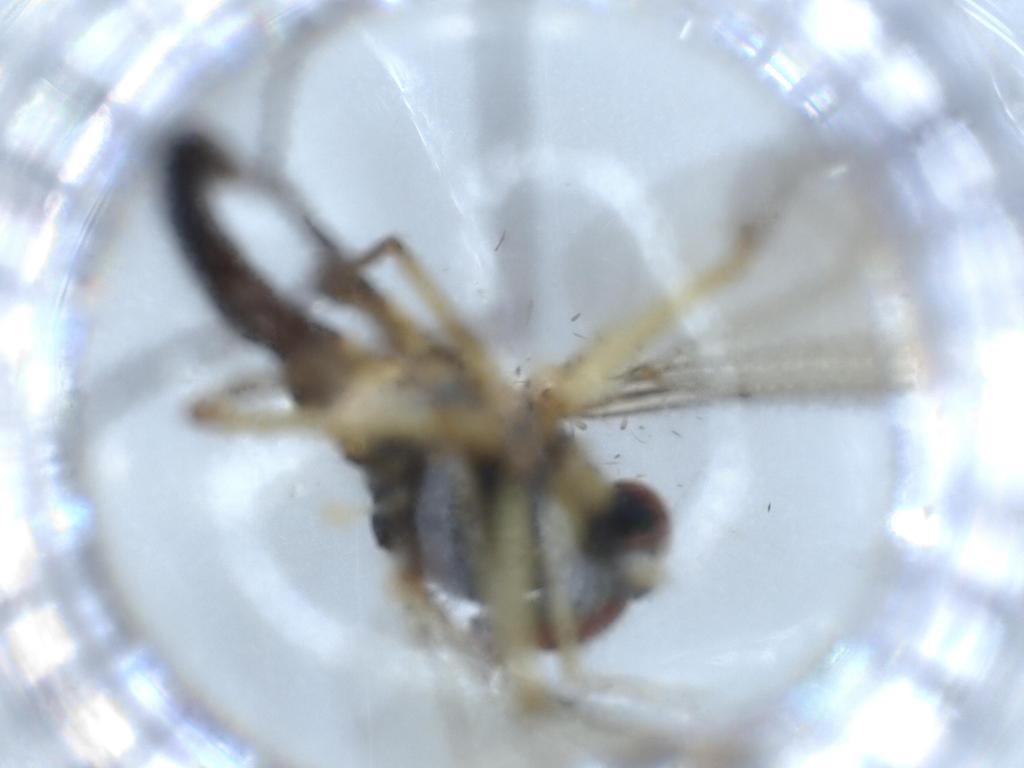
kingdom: Animalia
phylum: Arthropoda
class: Insecta
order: Diptera
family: Dolichopodidae
